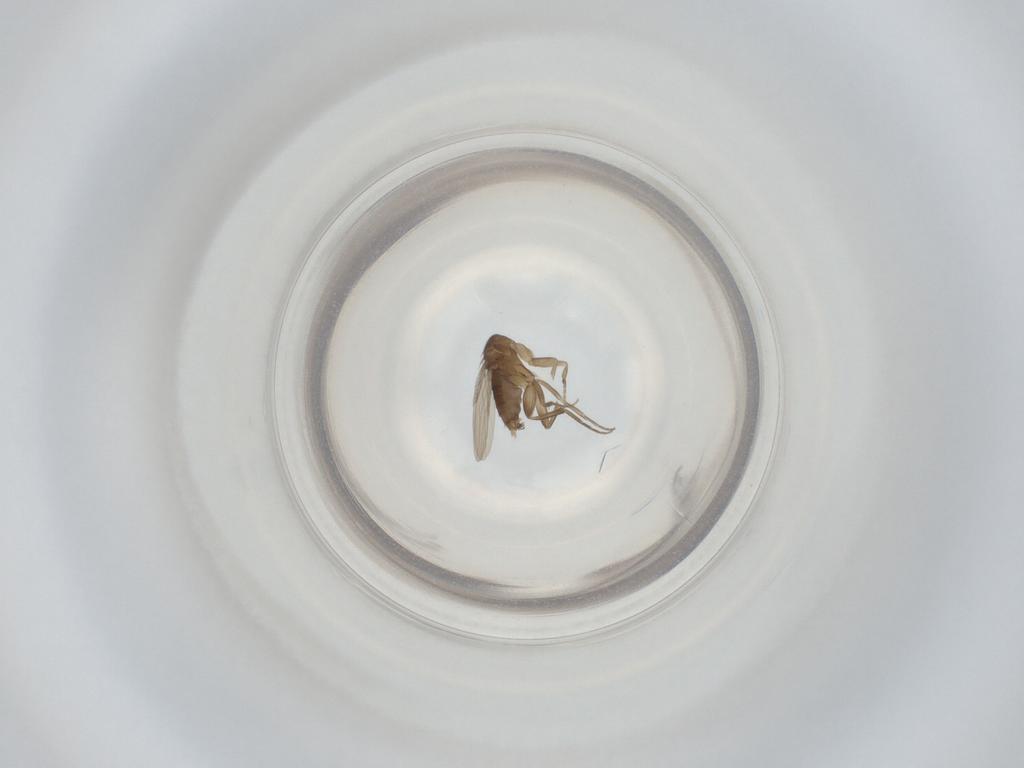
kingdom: Animalia
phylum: Arthropoda
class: Insecta
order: Diptera
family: Phoridae
